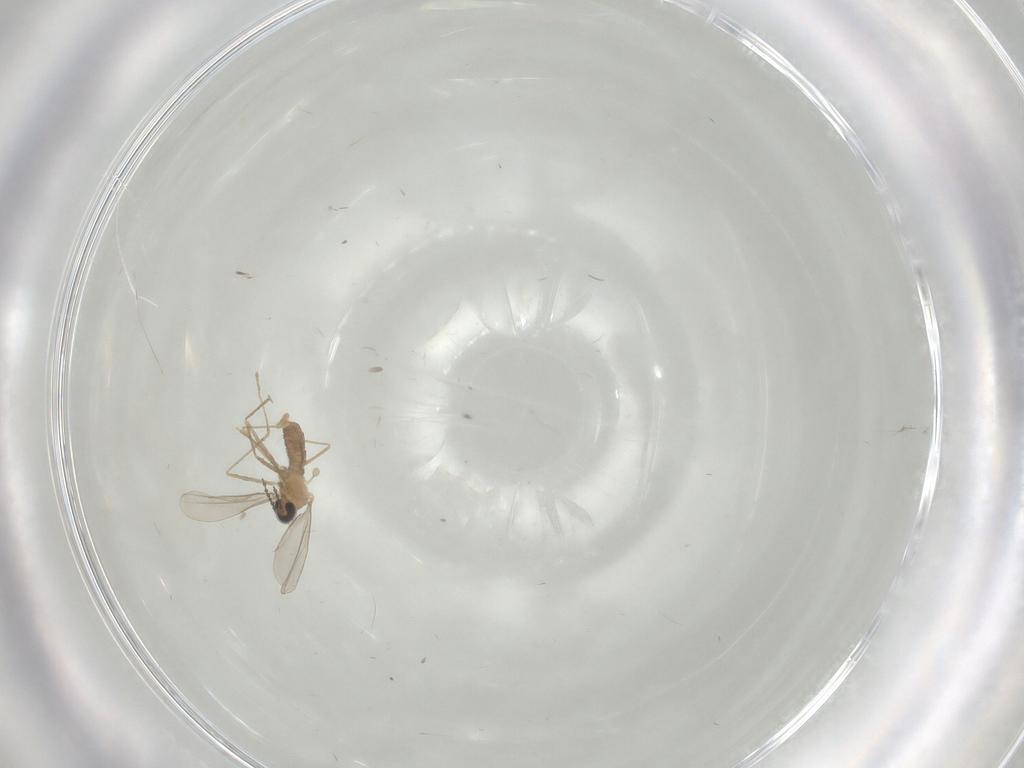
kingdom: Animalia
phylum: Arthropoda
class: Insecta
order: Diptera
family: Cecidomyiidae
